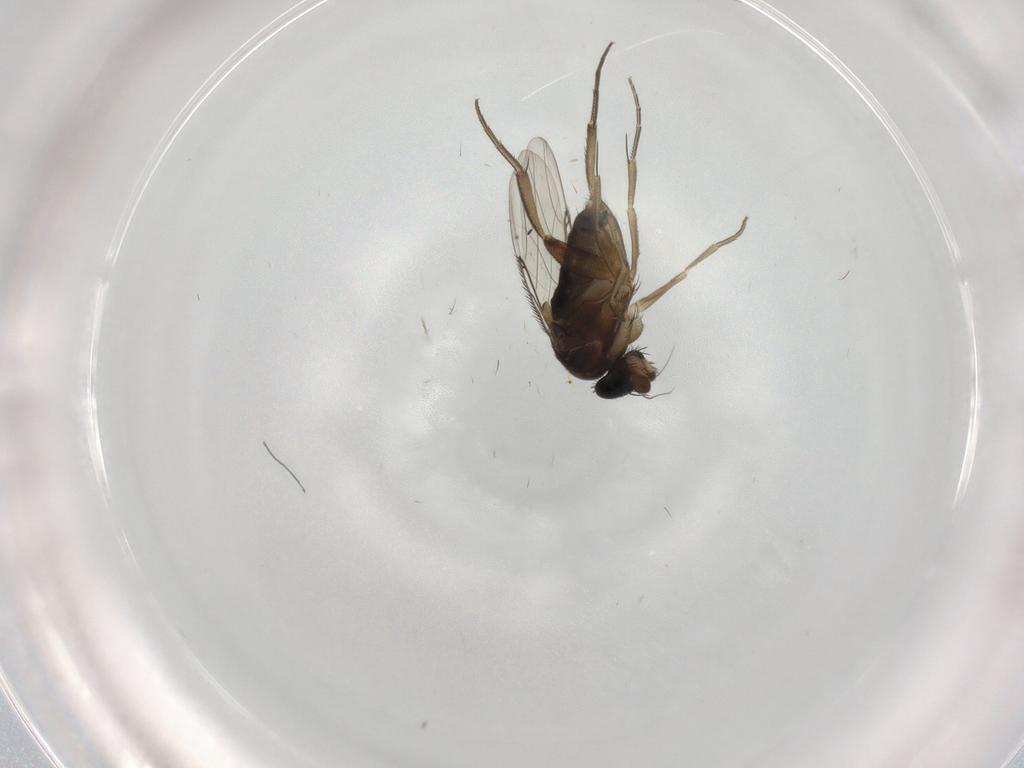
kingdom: Animalia
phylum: Arthropoda
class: Insecta
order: Diptera
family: Phoridae
